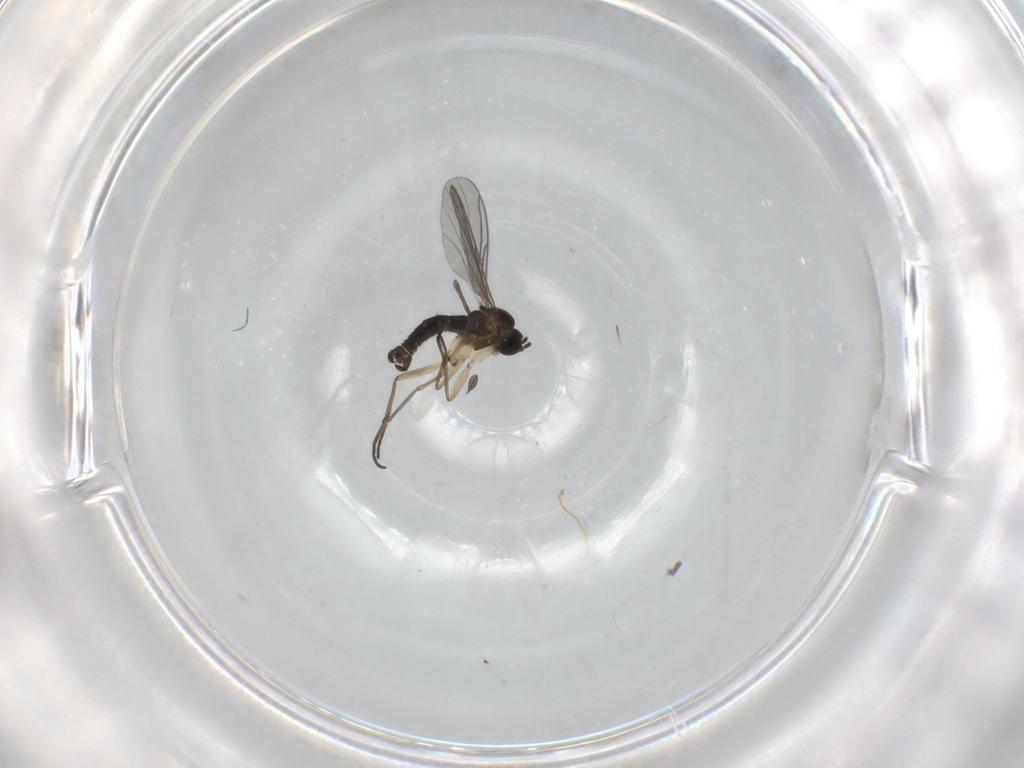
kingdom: Animalia
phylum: Arthropoda
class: Insecta
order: Diptera
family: Sciaridae
